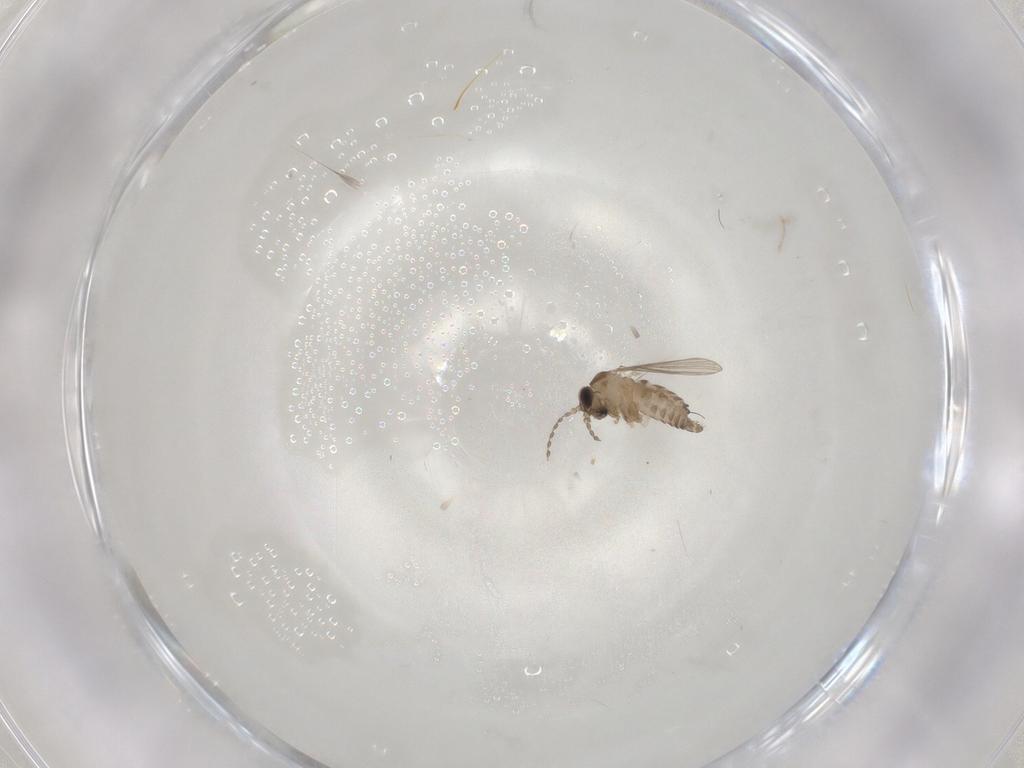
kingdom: Animalia
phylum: Arthropoda
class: Insecta
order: Diptera
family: Cecidomyiidae
